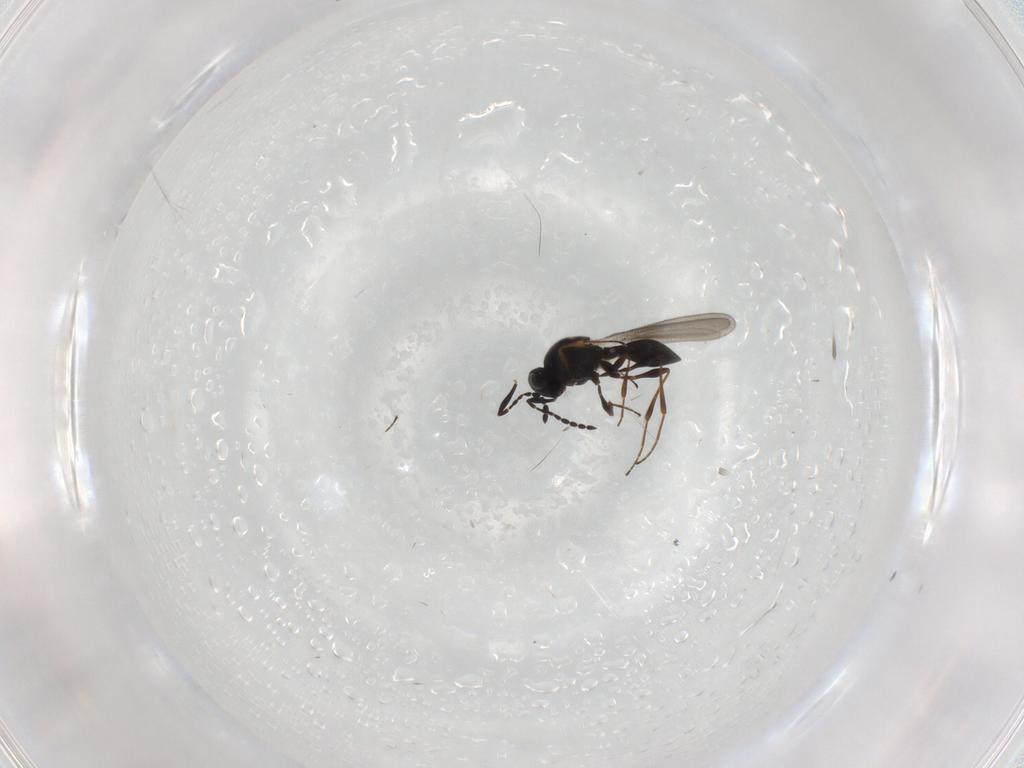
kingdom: Animalia
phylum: Arthropoda
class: Insecta
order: Hymenoptera
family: Platygastridae
